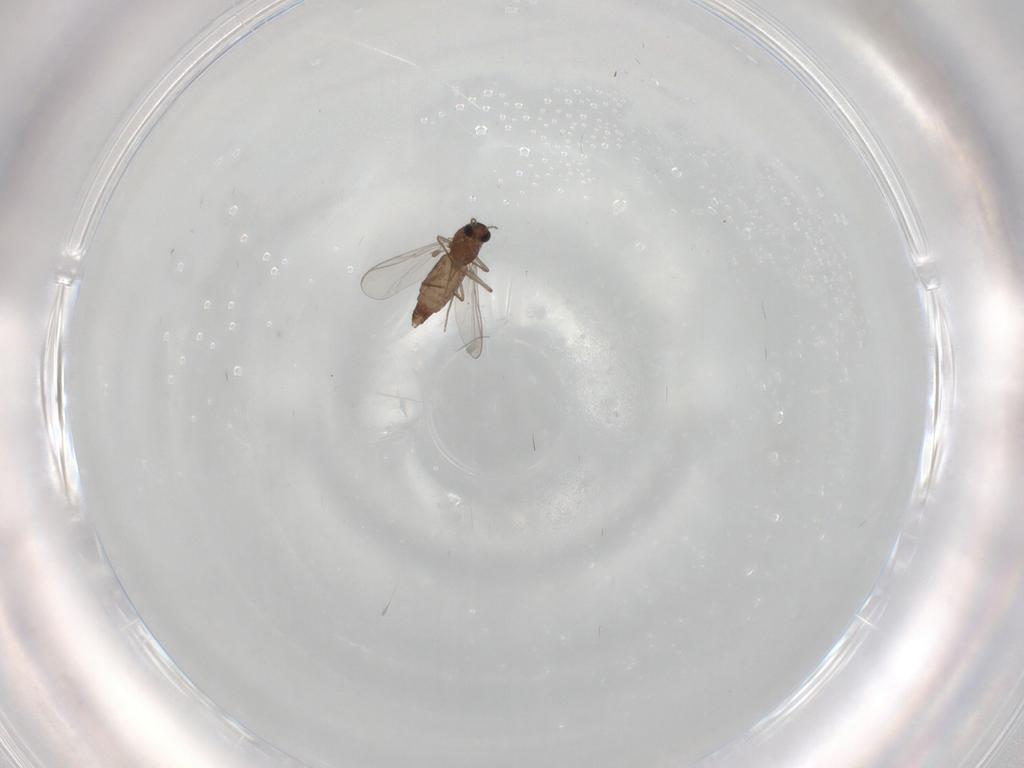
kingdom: Animalia
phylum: Arthropoda
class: Insecta
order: Diptera
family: Chironomidae
